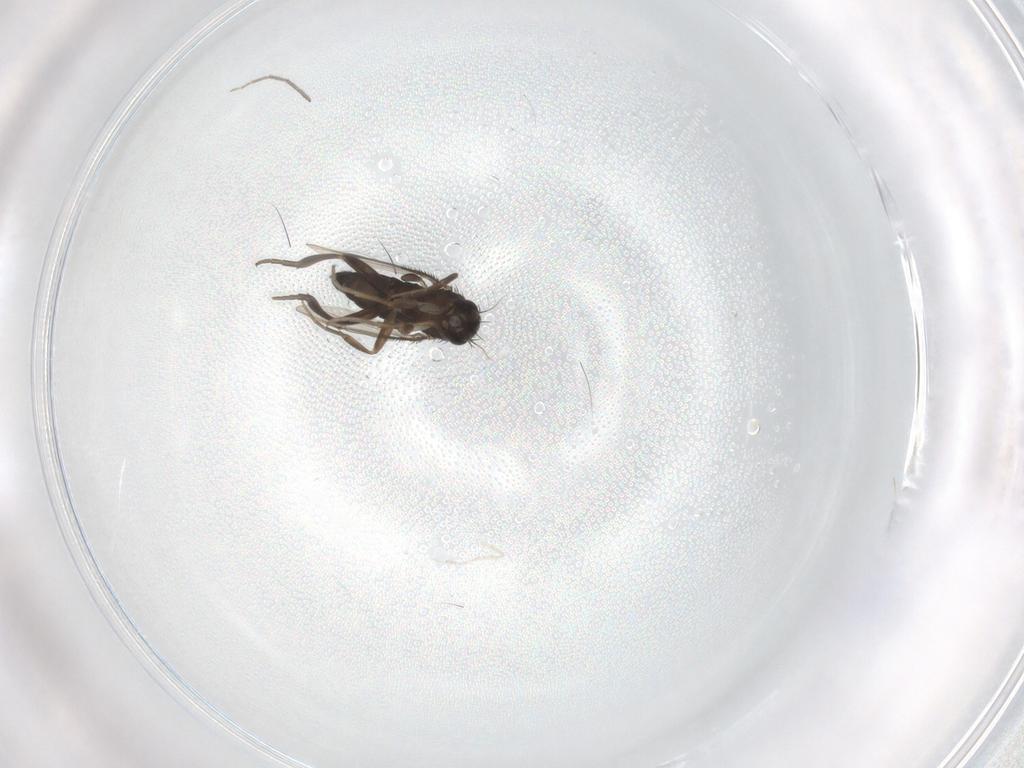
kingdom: Animalia
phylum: Arthropoda
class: Insecta
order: Diptera
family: Phoridae
